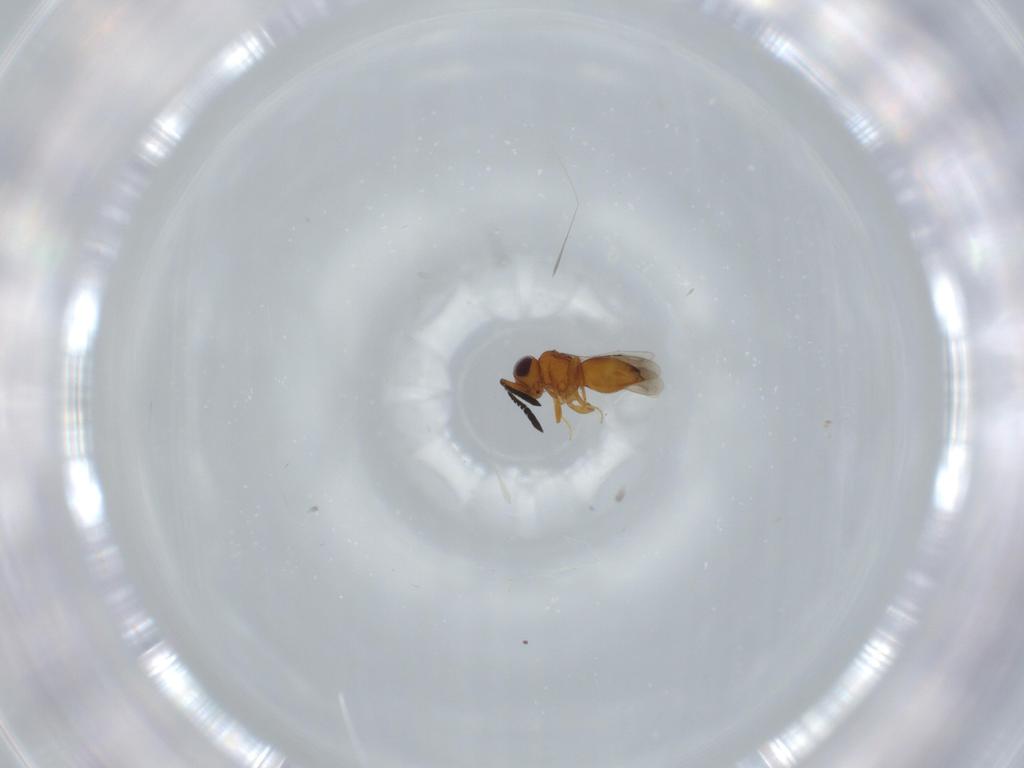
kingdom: Animalia
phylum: Arthropoda
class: Insecta
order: Hymenoptera
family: Ceraphronidae
